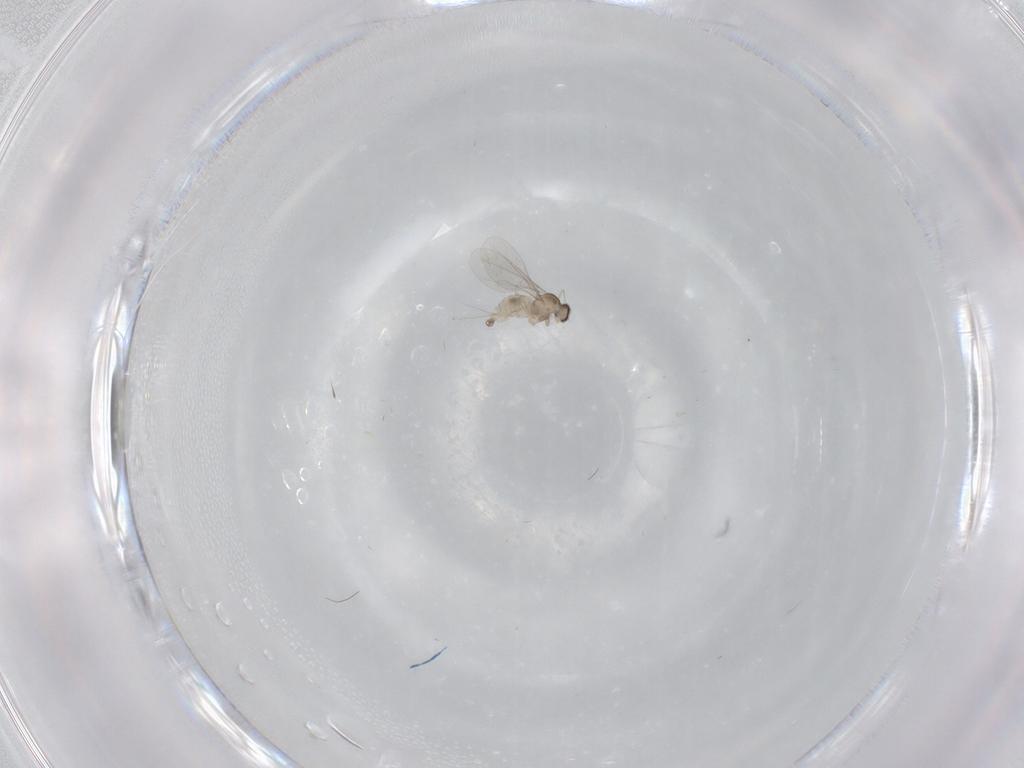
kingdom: Animalia
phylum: Arthropoda
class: Insecta
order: Diptera
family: Cecidomyiidae
